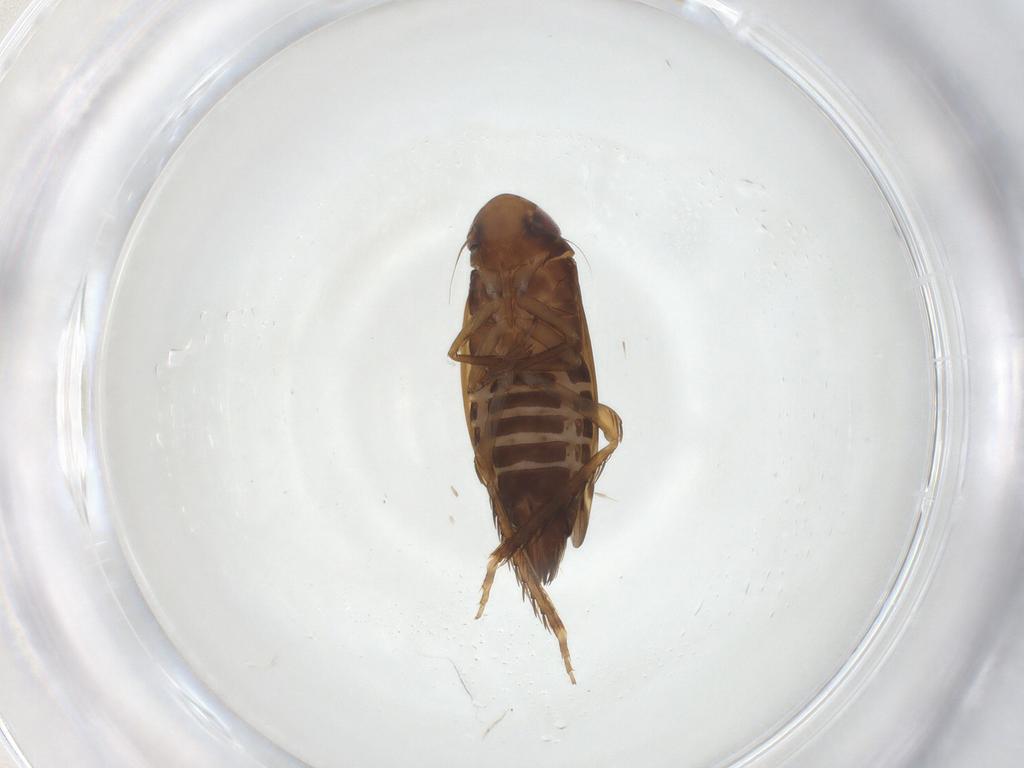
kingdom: Animalia
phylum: Arthropoda
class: Insecta
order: Hemiptera
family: Cicadellidae
